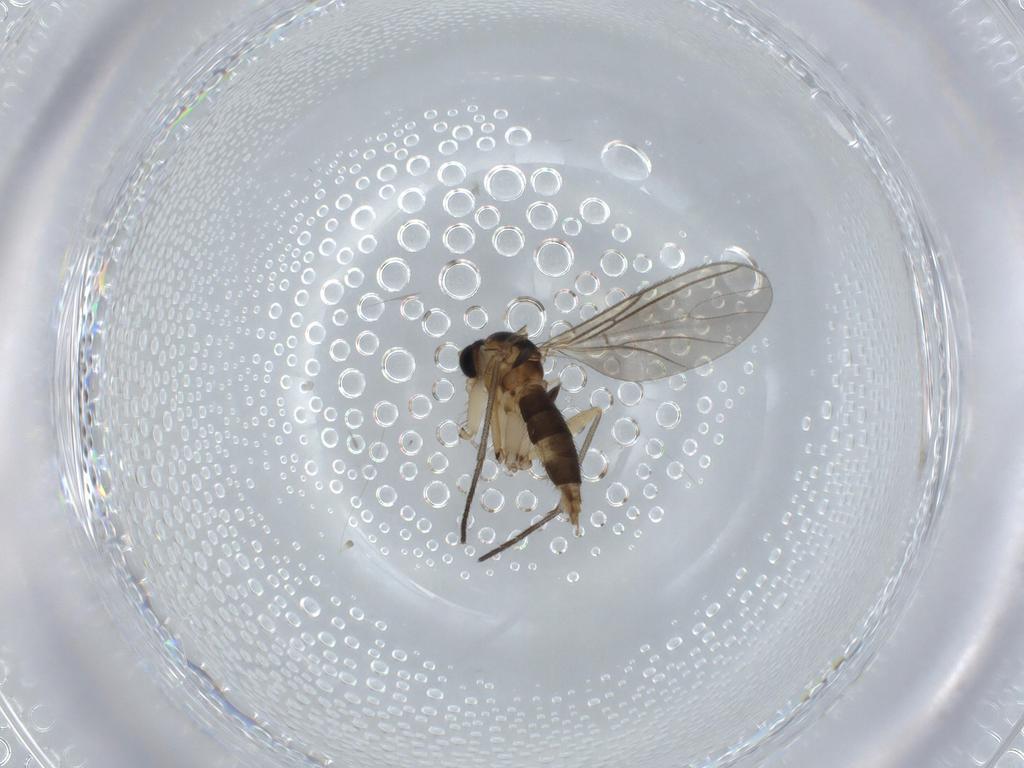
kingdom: Animalia
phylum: Arthropoda
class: Insecta
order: Diptera
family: Sciaridae
